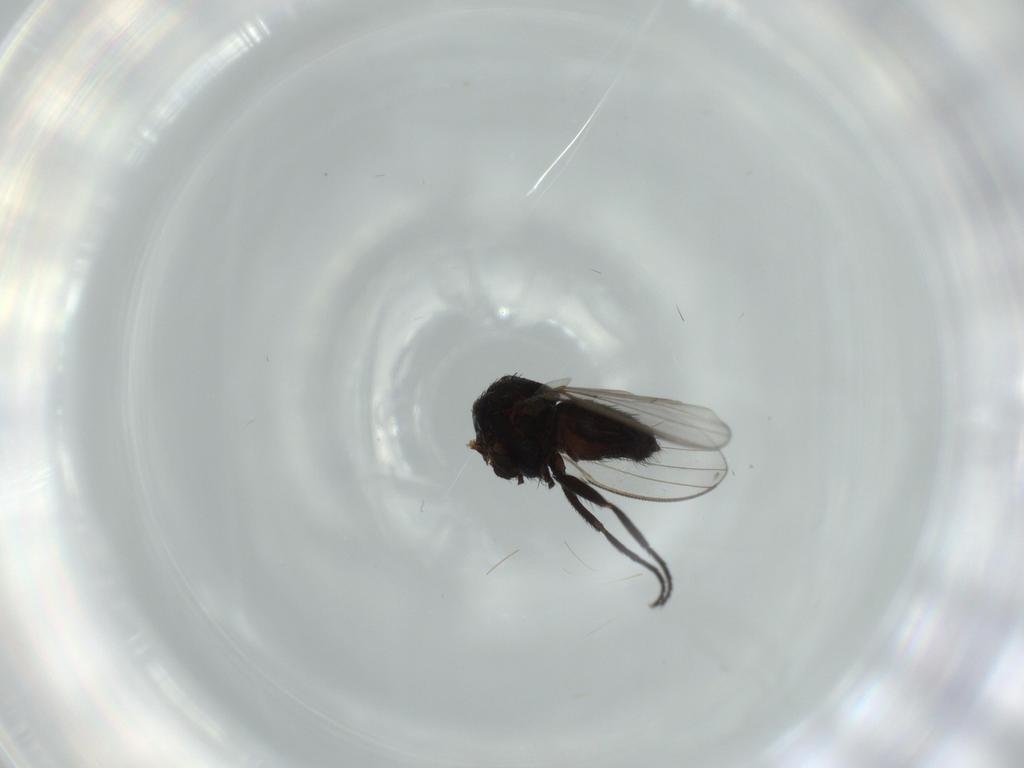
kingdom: Animalia
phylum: Arthropoda
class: Insecta
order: Diptera
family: Milichiidae
